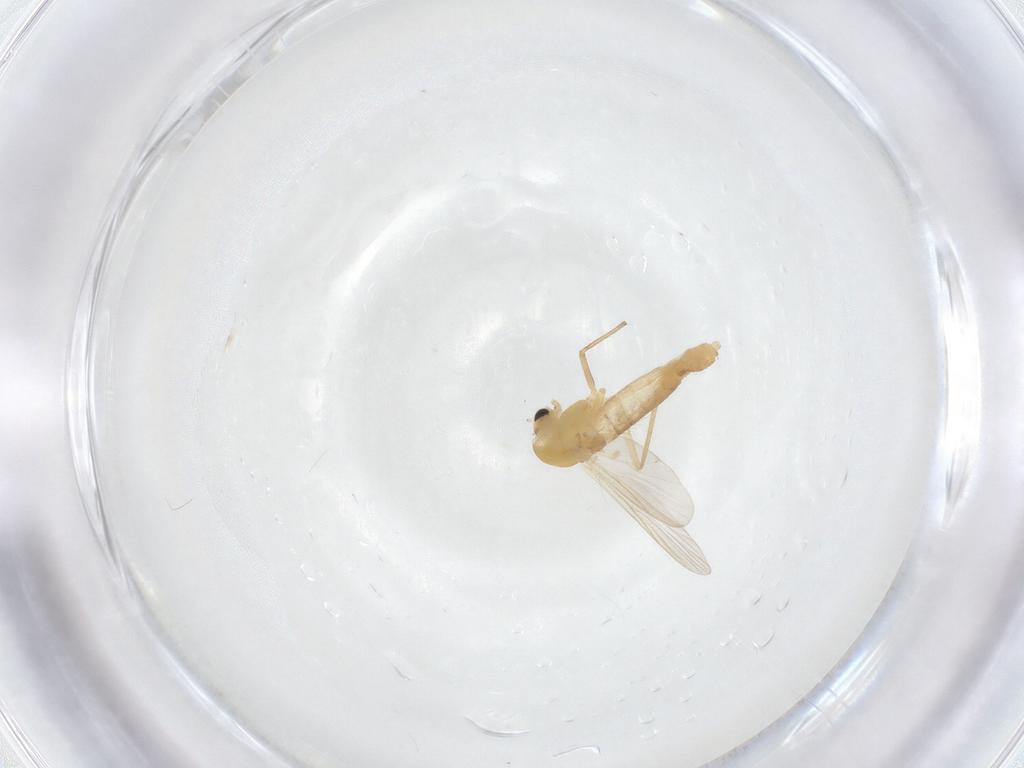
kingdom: Animalia
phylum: Arthropoda
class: Insecta
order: Diptera
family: Chironomidae
